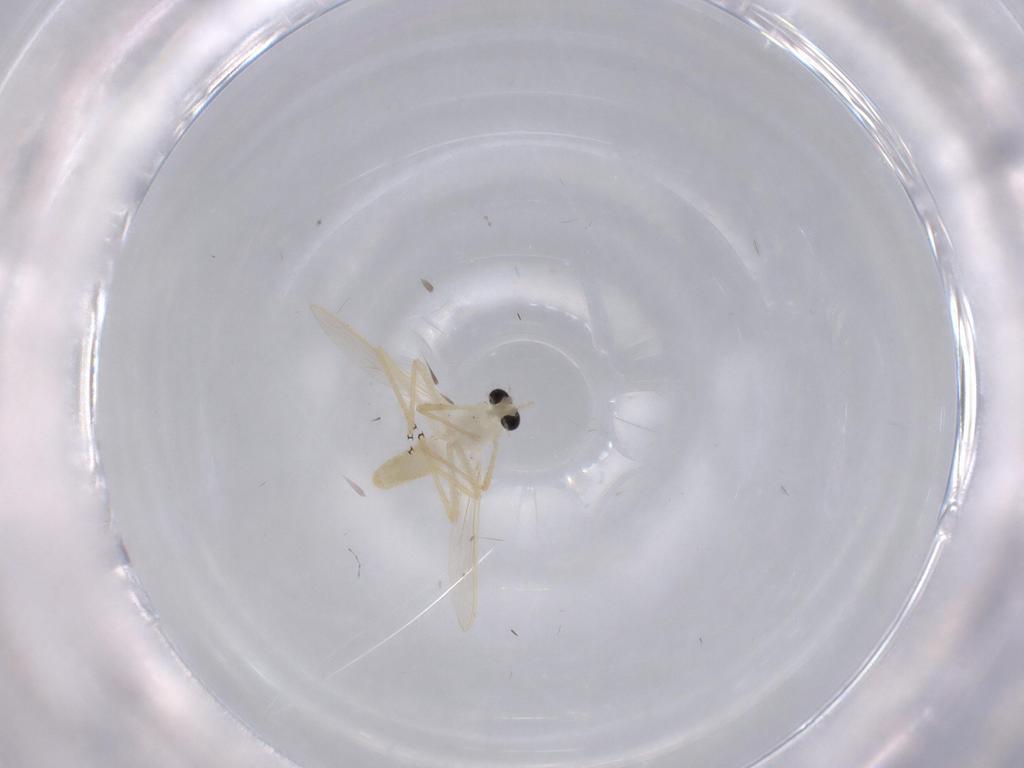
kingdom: Animalia
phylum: Arthropoda
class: Insecta
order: Diptera
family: Chironomidae
